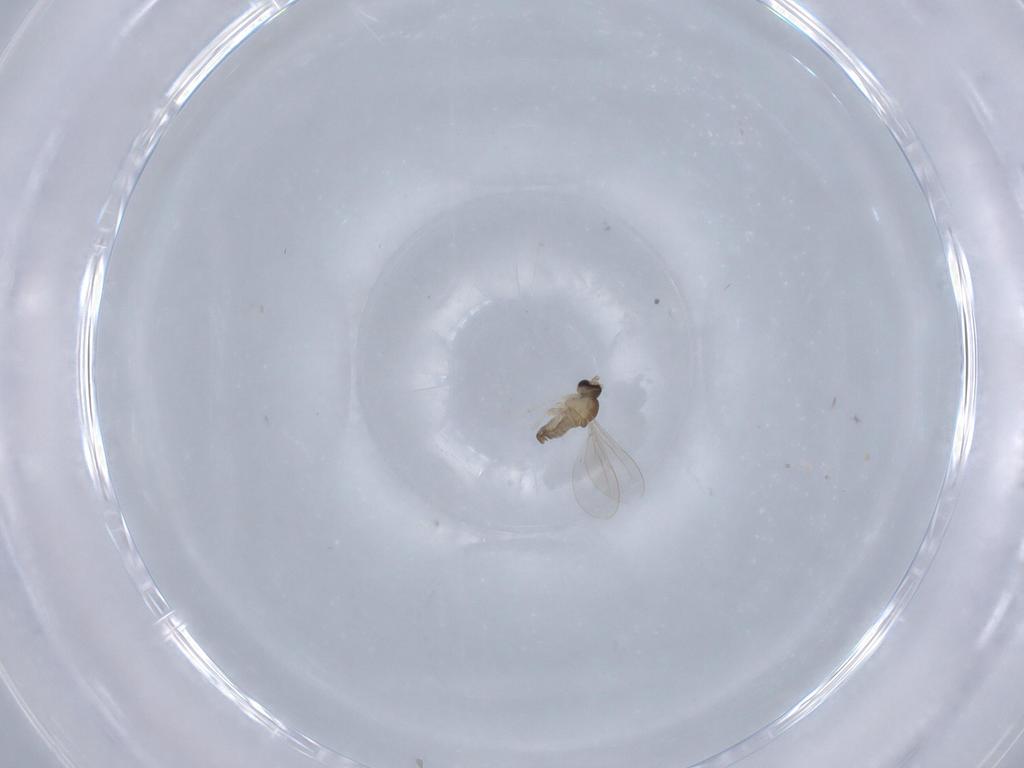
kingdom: Animalia
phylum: Arthropoda
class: Insecta
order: Diptera
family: Cecidomyiidae
